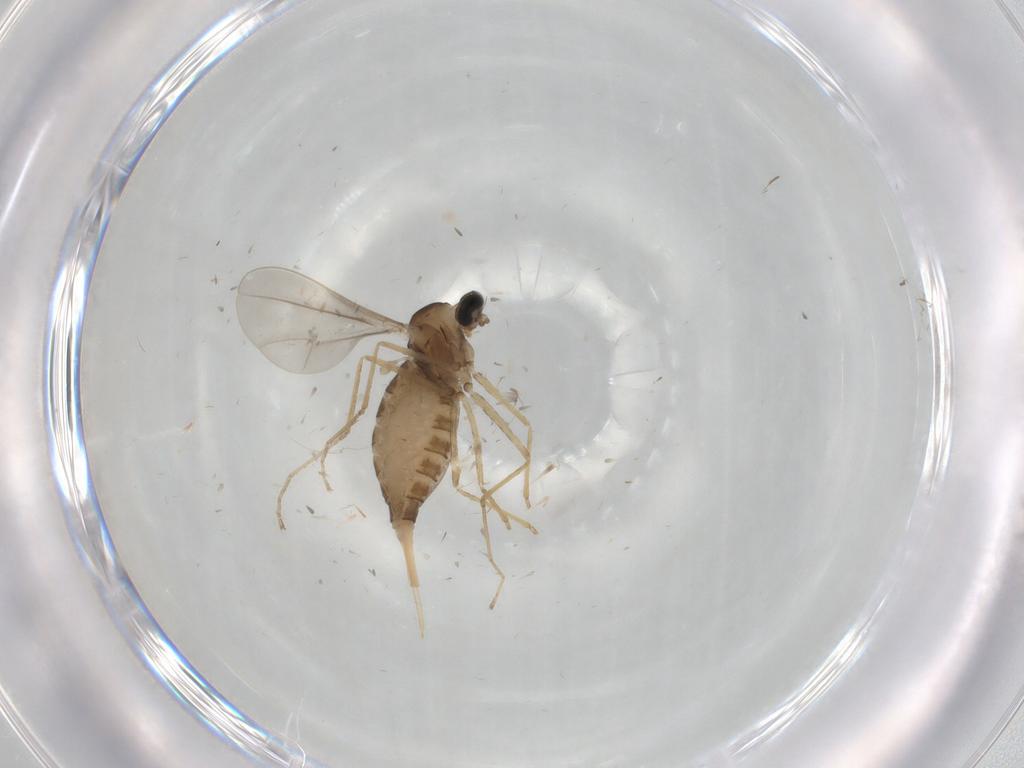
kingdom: Animalia
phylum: Arthropoda
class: Insecta
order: Diptera
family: Cecidomyiidae
